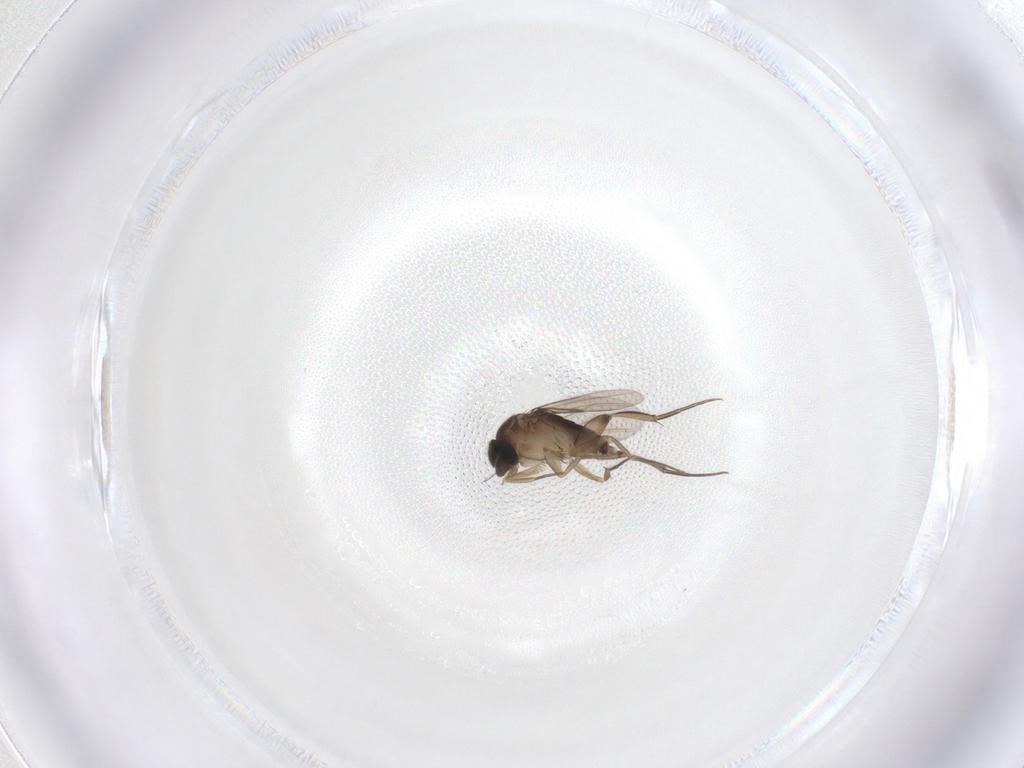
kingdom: Animalia
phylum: Arthropoda
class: Insecta
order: Diptera
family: Phoridae
